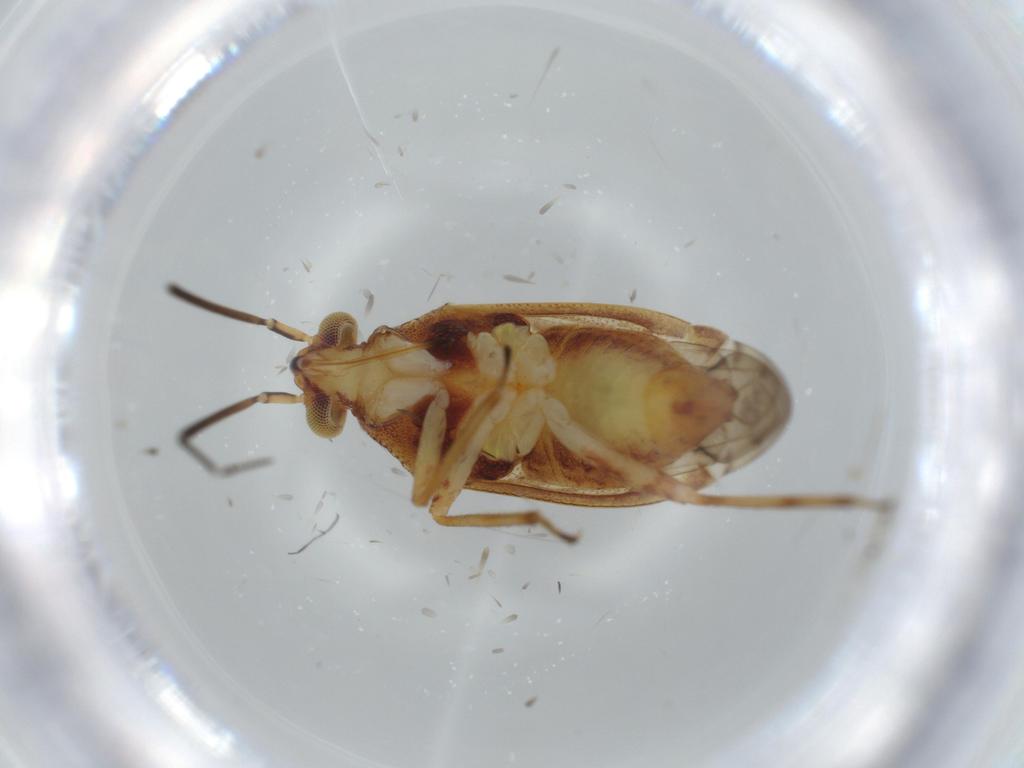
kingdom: Animalia
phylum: Arthropoda
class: Insecta
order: Hemiptera
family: Miridae
